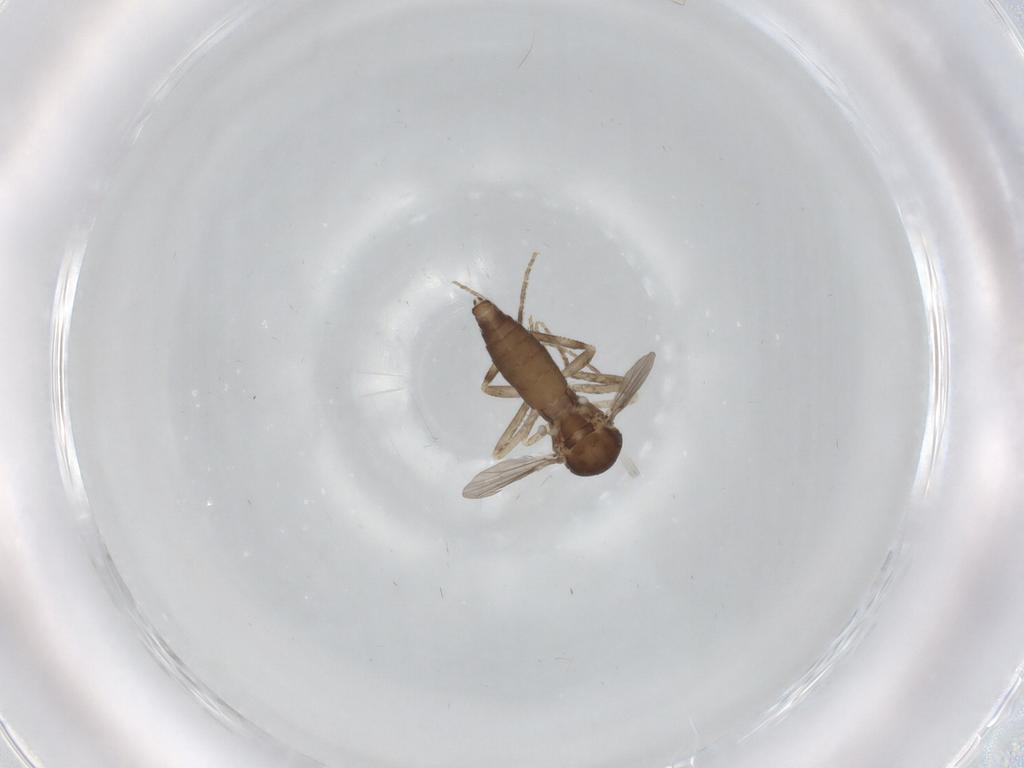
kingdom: Animalia
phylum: Arthropoda
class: Insecta
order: Diptera
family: Ceratopogonidae
